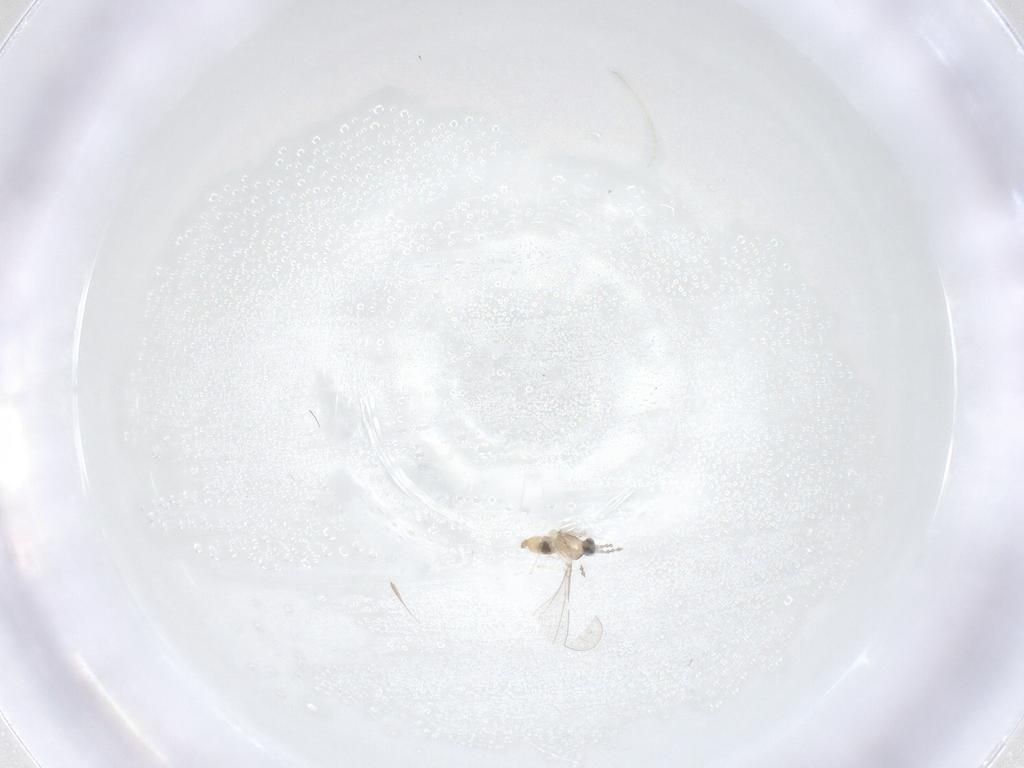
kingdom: Animalia
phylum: Arthropoda
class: Insecta
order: Diptera
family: Cecidomyiidae
